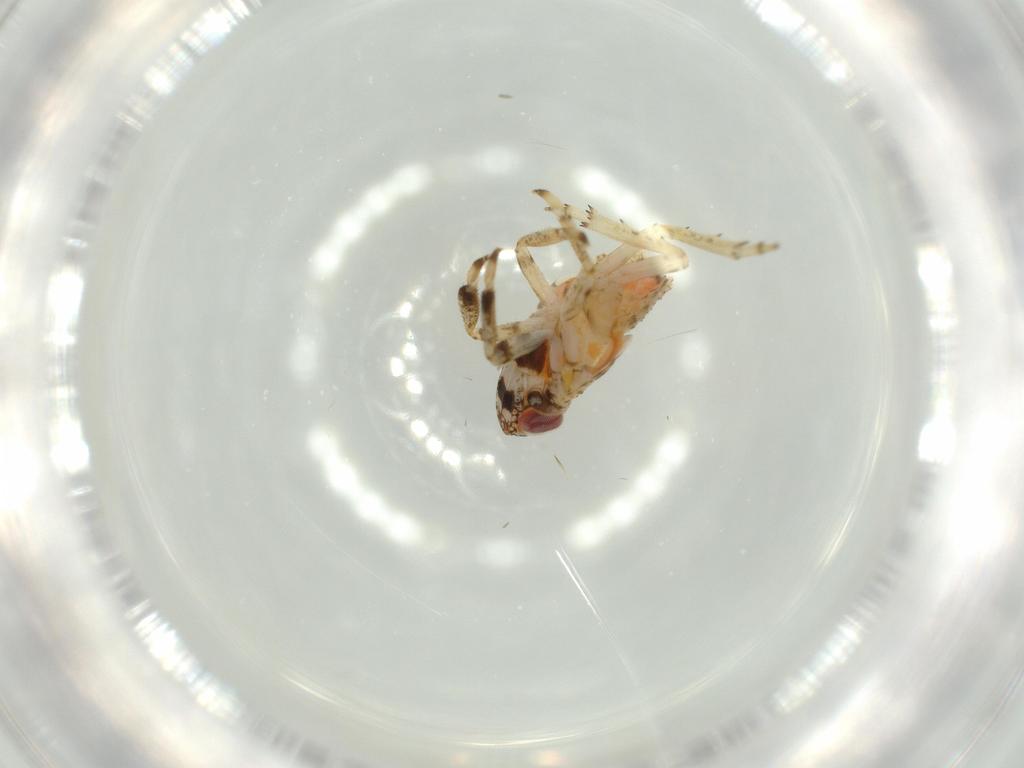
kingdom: Animalia
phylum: Arthropoda
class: Insecta
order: Hemiptera
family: Issidae
